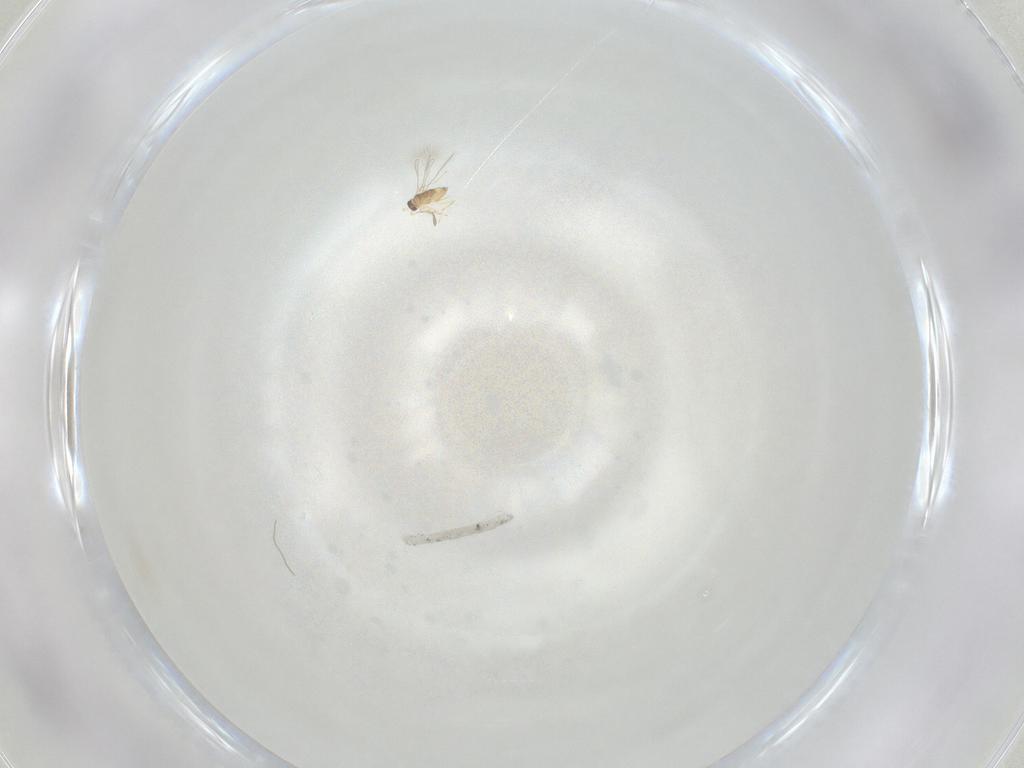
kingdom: Animalia
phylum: Arthropoda
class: Insecta
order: Hymenoptera
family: Mymaridae
